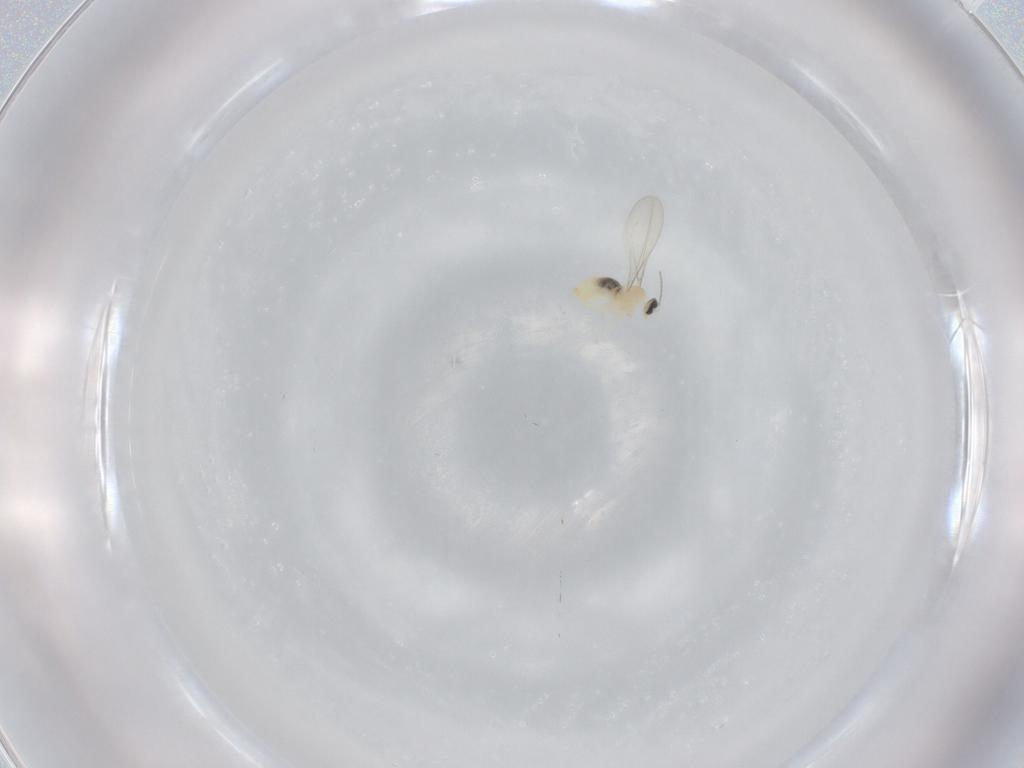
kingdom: Animalia
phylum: Arthropoda
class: Insecta
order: Diptera
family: Cecidomyiidae
